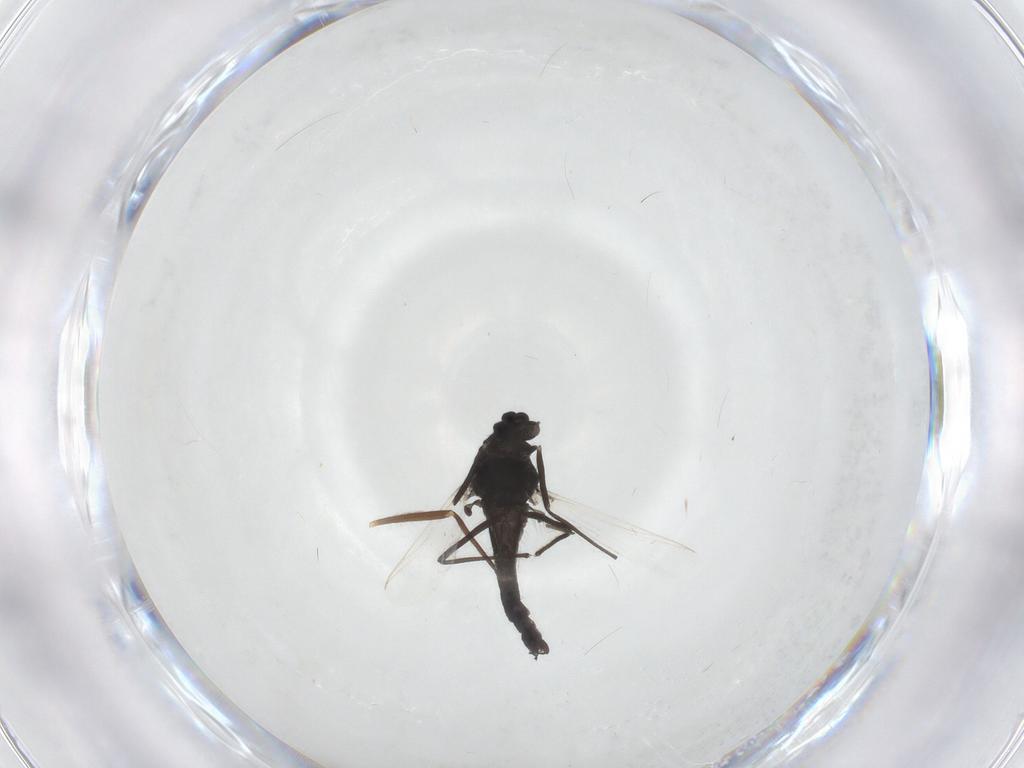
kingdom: Animalia
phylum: Arthropoda
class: Insecta
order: Diptera
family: Chironomidae
